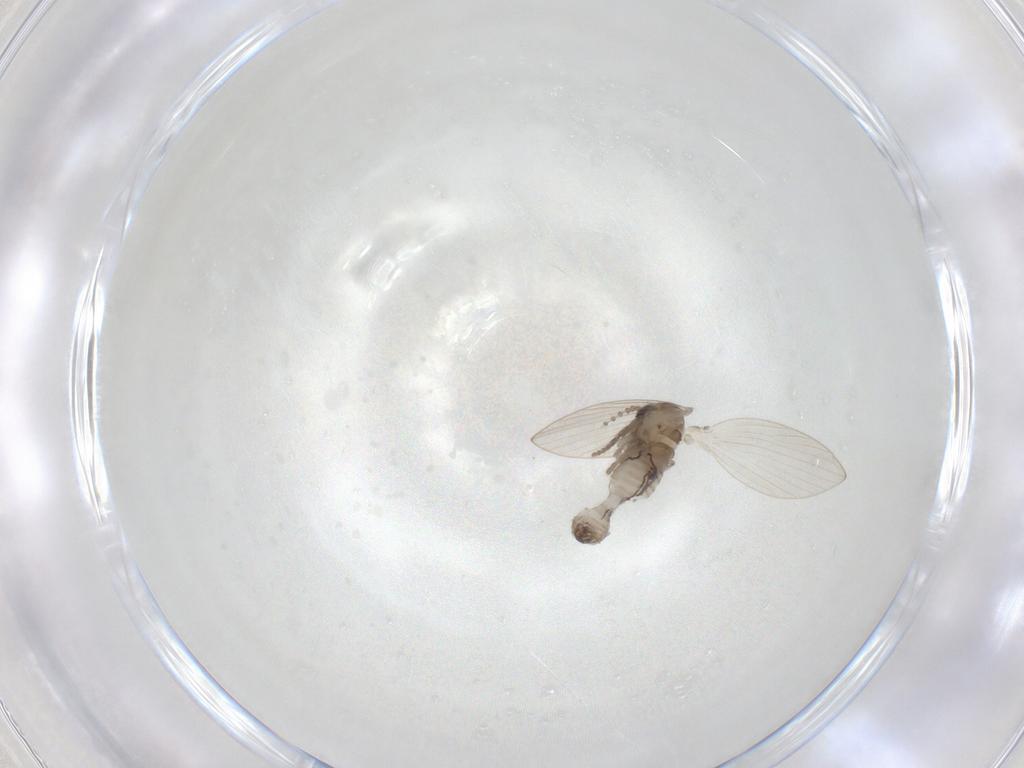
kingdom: Animalia
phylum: Arthropoda
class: Insecta
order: Diptera
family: Psychodidae
